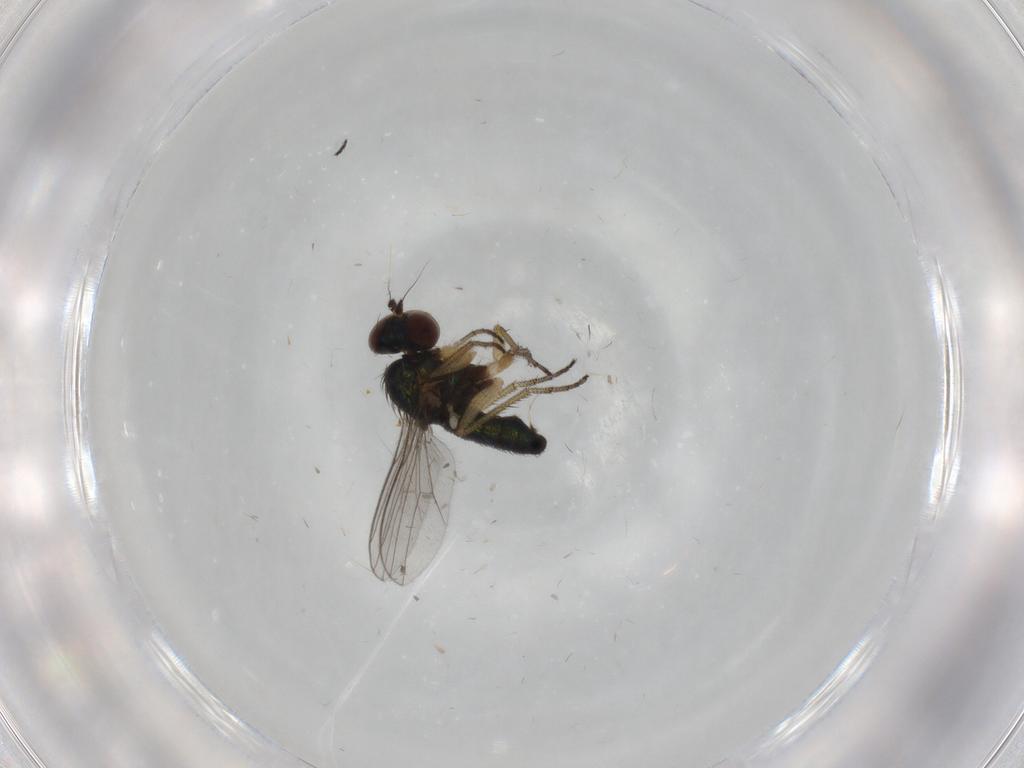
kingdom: Animalia
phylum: Arthropoda
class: Insecta
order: Diptera
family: Dolichopodidae
